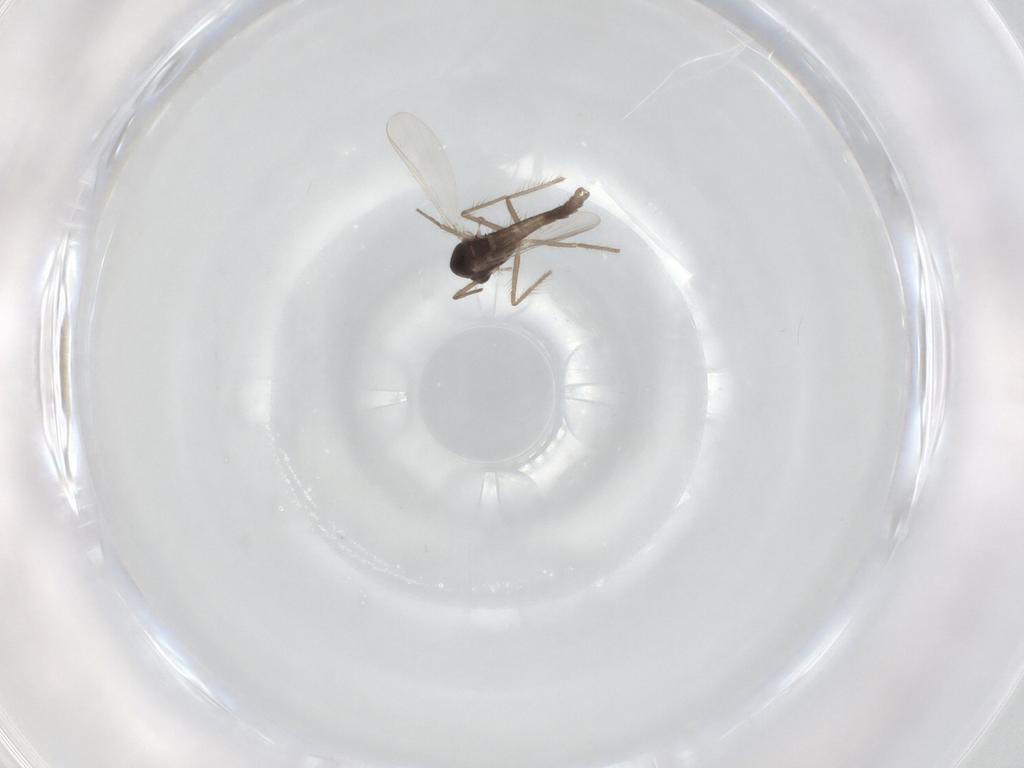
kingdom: Animalia
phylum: Arthropoda
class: Insecta
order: Diptera
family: Chironomidae
